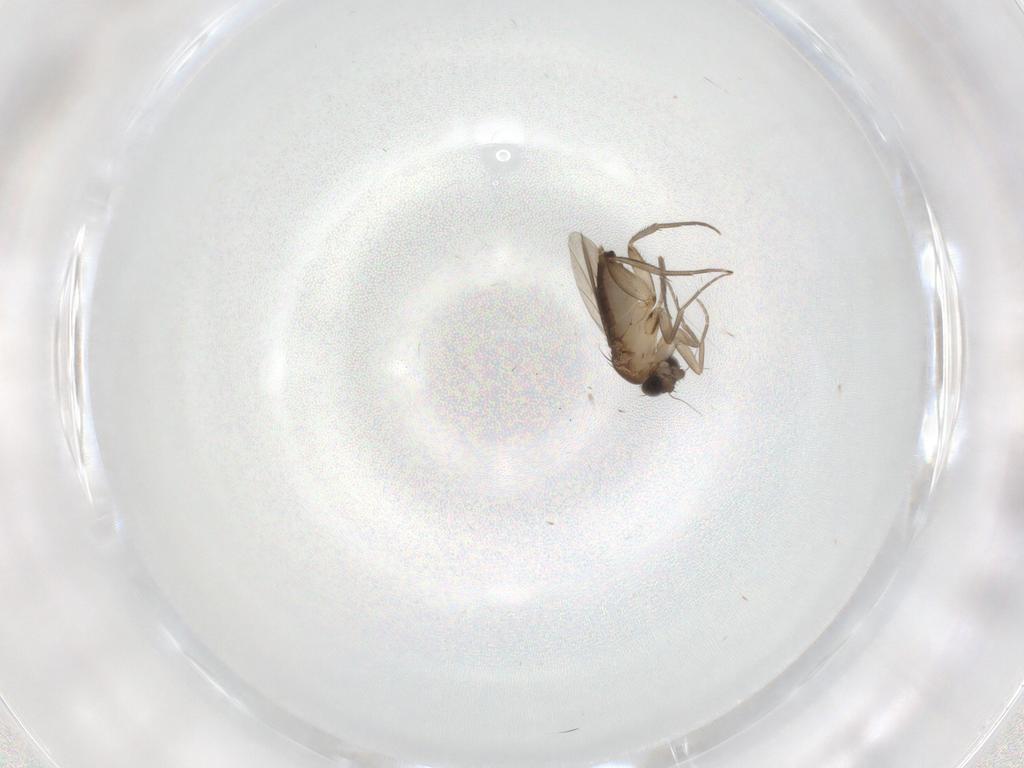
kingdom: Animalia
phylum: Arthropoda
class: Insecta
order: Diptera
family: Phoridae
